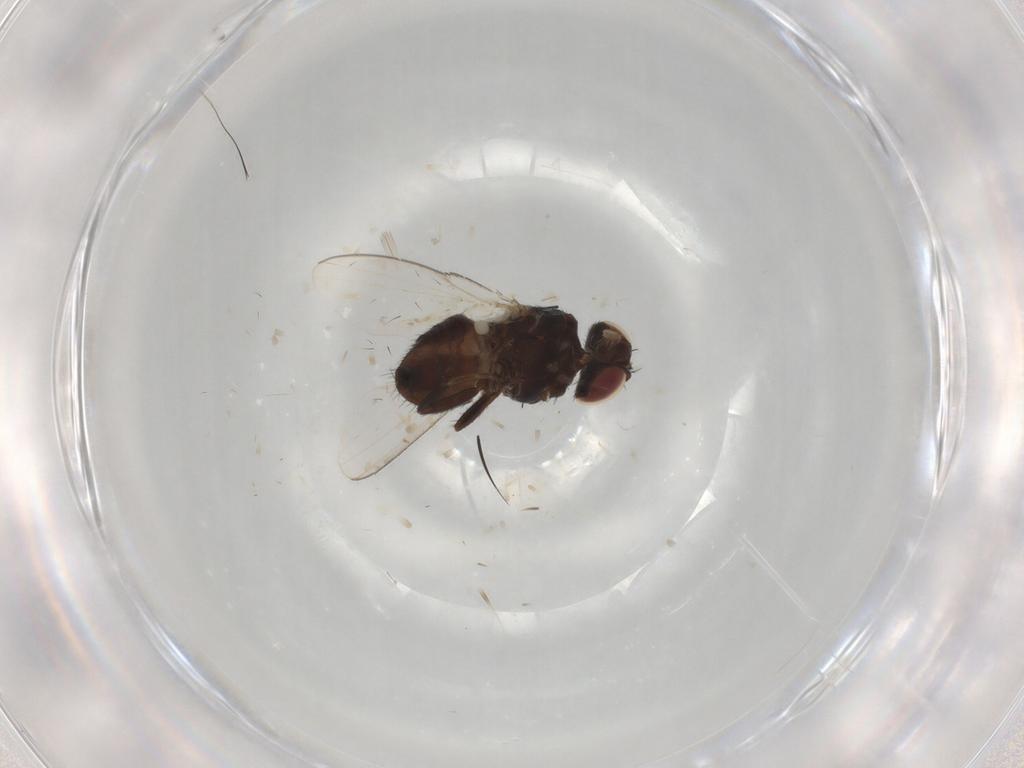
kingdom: Animalia
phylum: Arthropoda
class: Insecta
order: Diptera
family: Milichiidae
